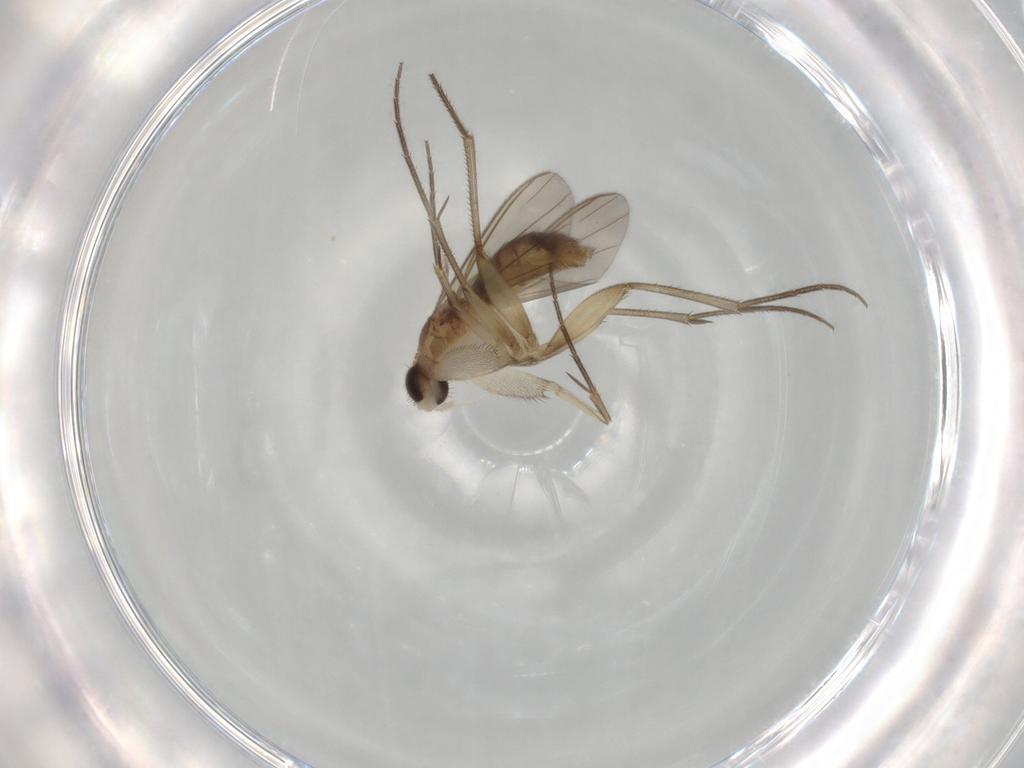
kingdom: Animalia
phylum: Arthropoda
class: Insecta
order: Diptera
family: Mycetophilidae
